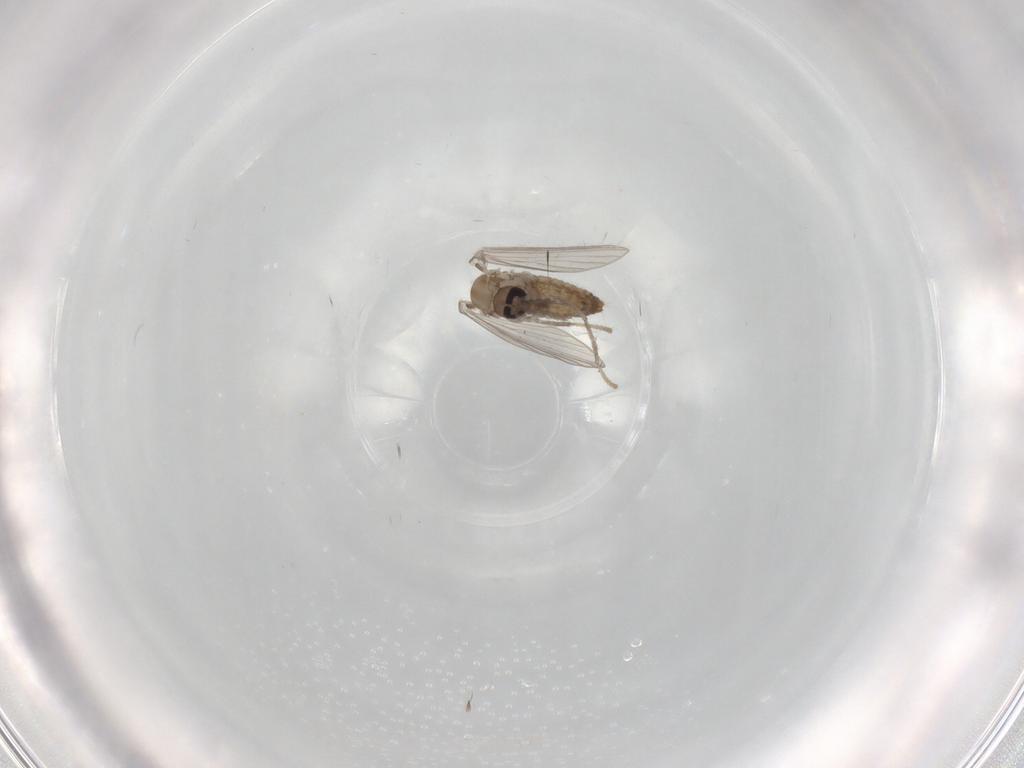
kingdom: Animalia
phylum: Arthropoda
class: Insecta
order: Diptera
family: Psychodidae
